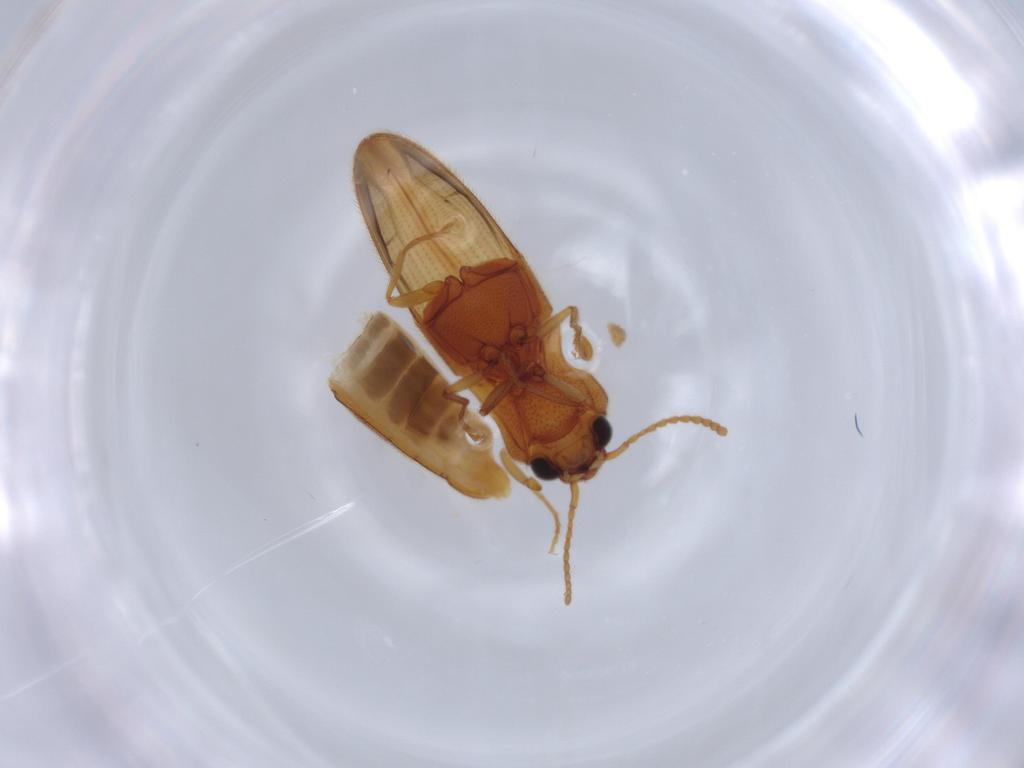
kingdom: Animalia
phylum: Arthropoda
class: Insecta
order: Coleoptera
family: Elateridae
